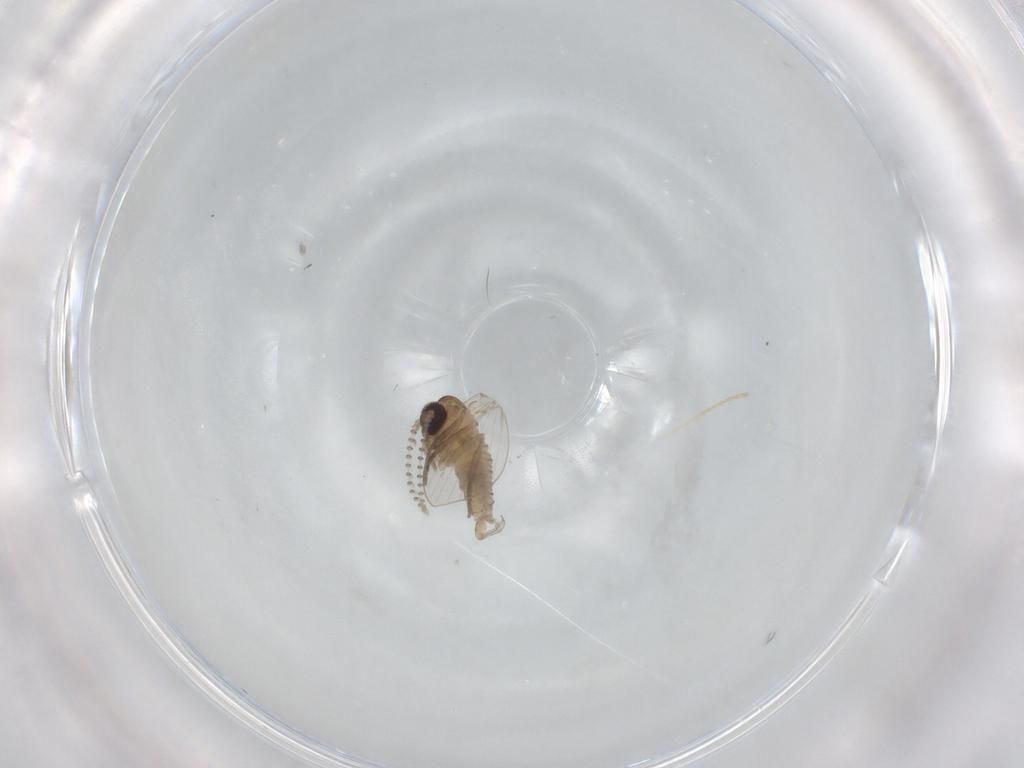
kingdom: Animalia
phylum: Arthropoda
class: Insecta
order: Diptera
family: Psychodidae
